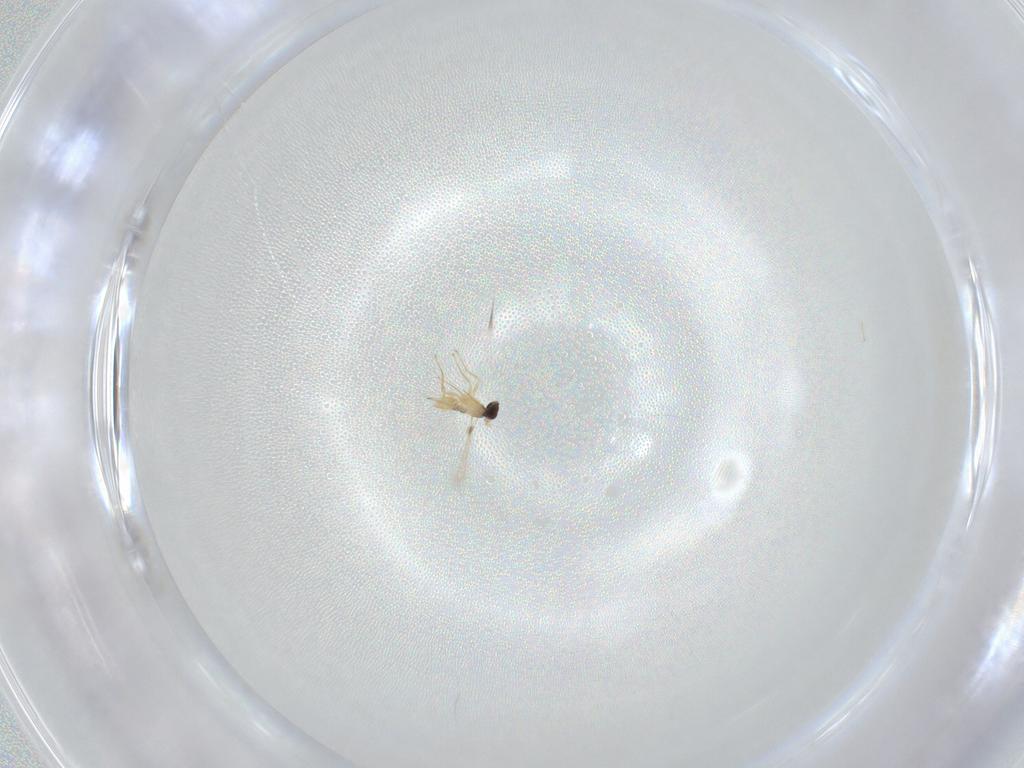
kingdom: Animalia
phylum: Arthropoda
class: Insecta
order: Hymenoptera
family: Mymaridae
